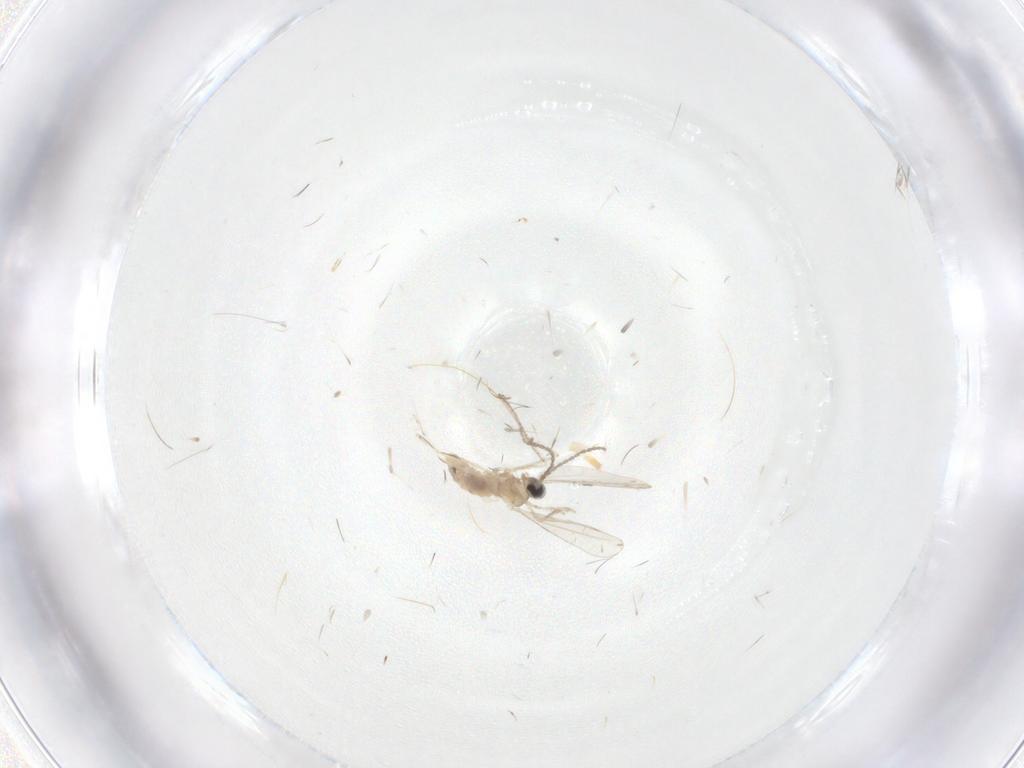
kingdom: Animalia
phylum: Arthropoda
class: Insecta
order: Diptera
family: Cecidomyiidae
